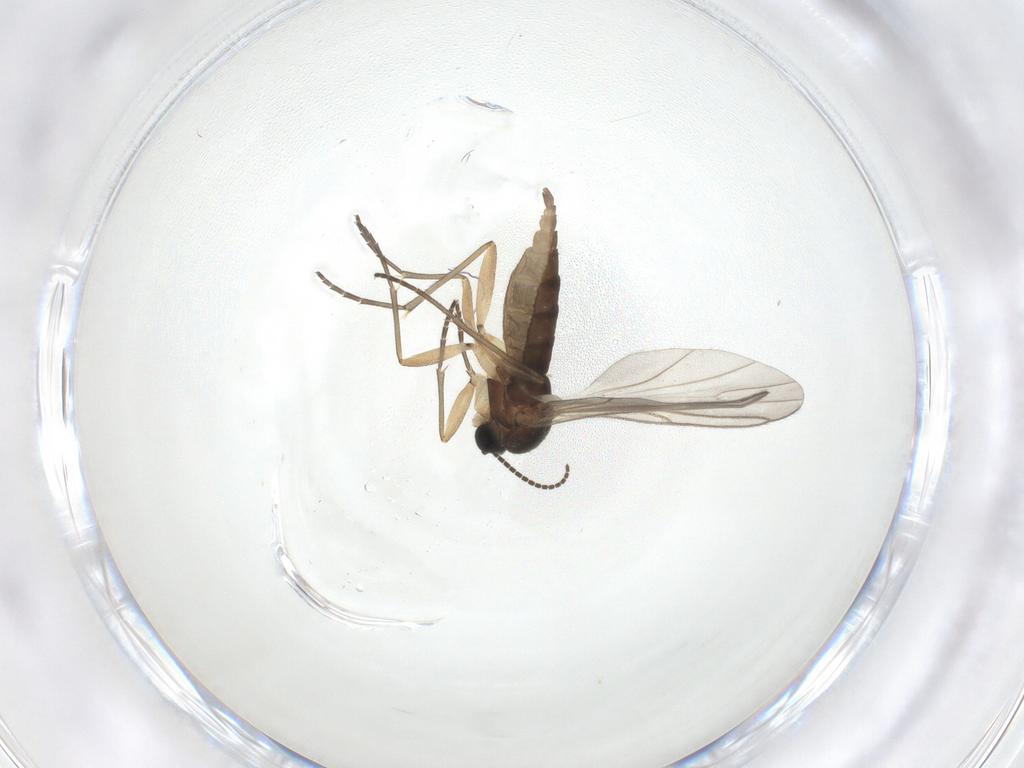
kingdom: Animalia
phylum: Arthropoda
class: Insecta
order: Diptera
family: Sciaridae
